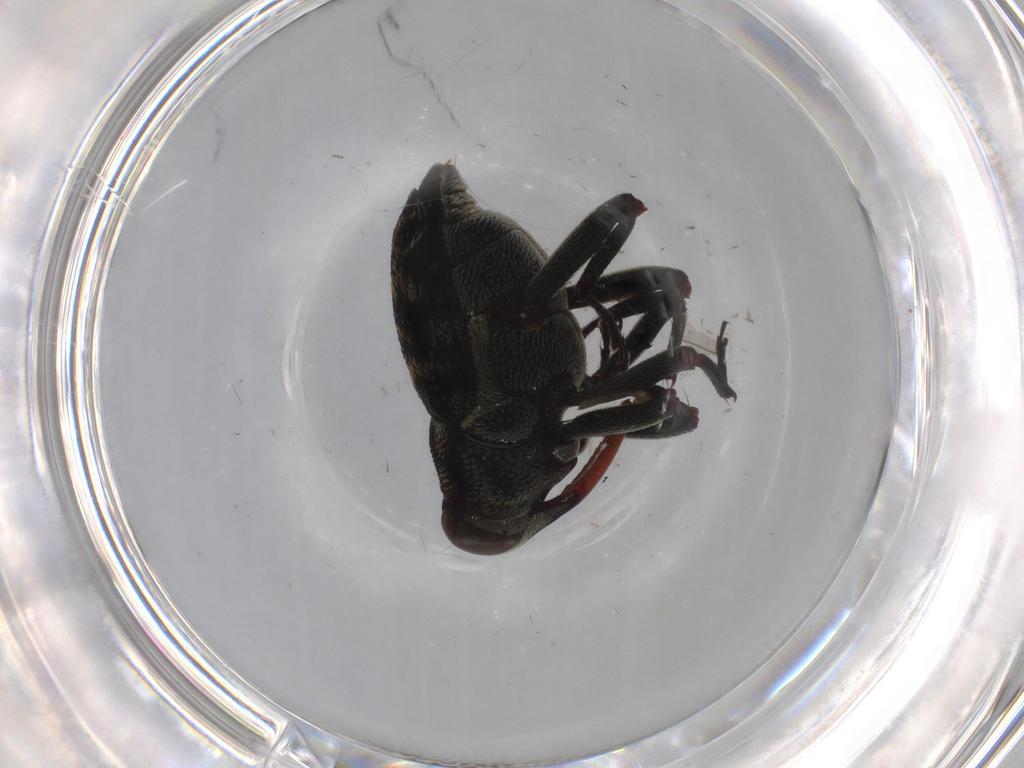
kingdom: Animalia
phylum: Arthropoda
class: Insecta
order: Coleoptera
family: Curculionidae
